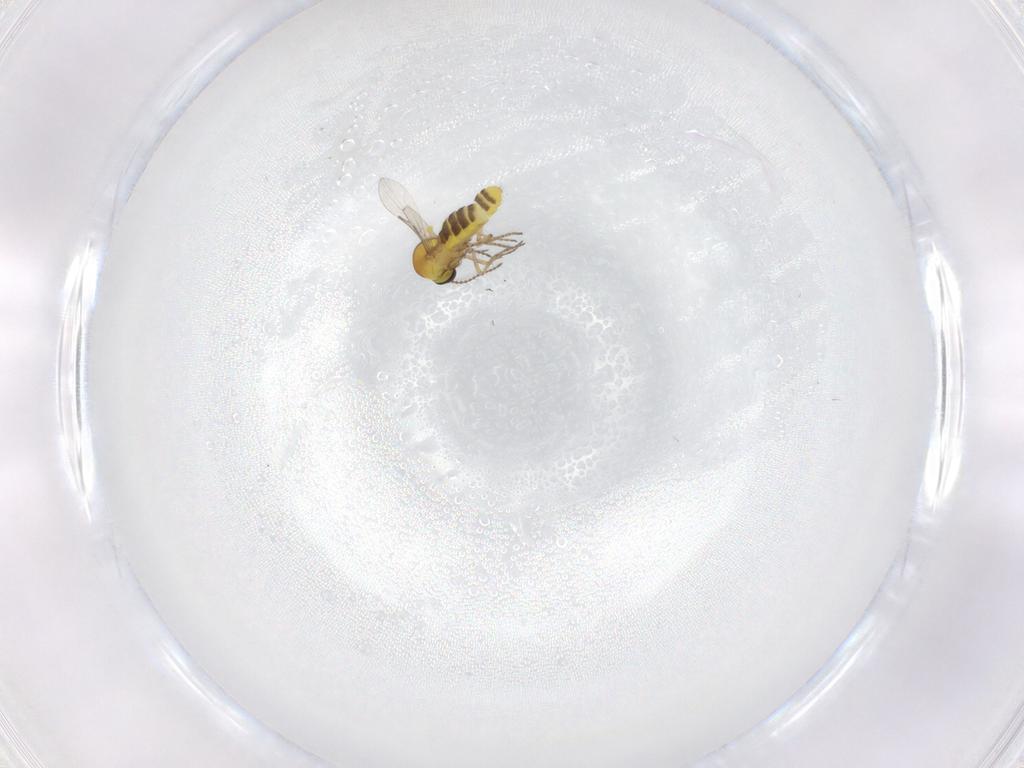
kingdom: Animalia
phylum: Arthropoda
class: Insecta
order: Diptera
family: Ceratopogonidae
